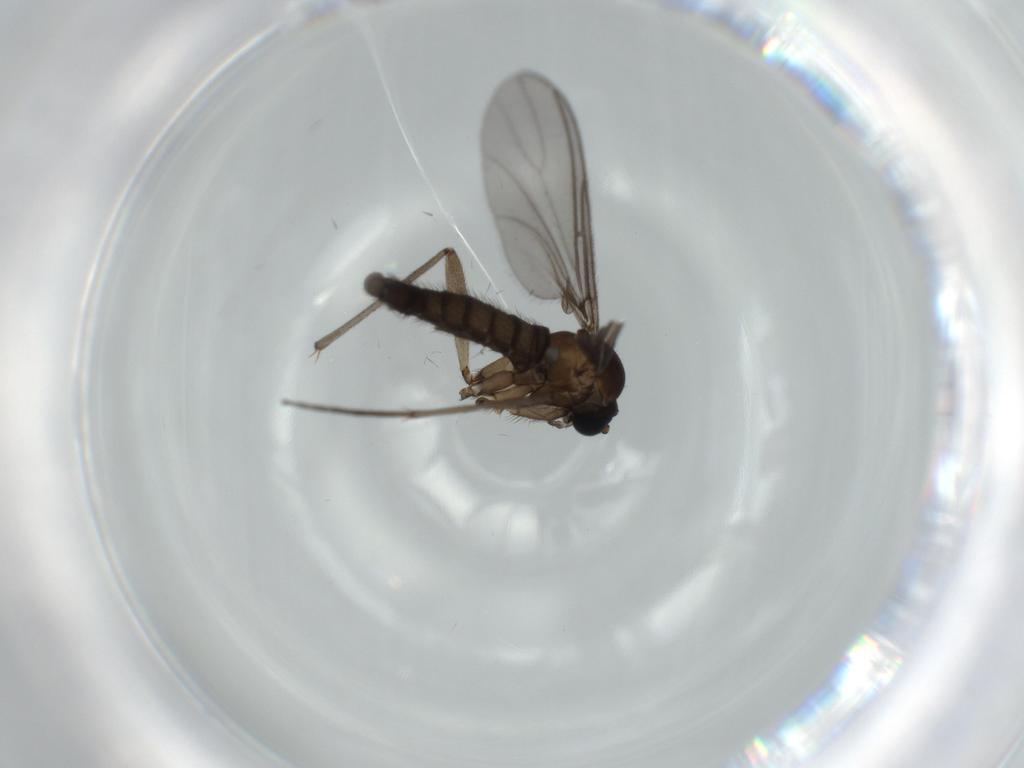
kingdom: Animalia
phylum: Arthropoda
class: Insecta
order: Diptera
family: Sciaridae
